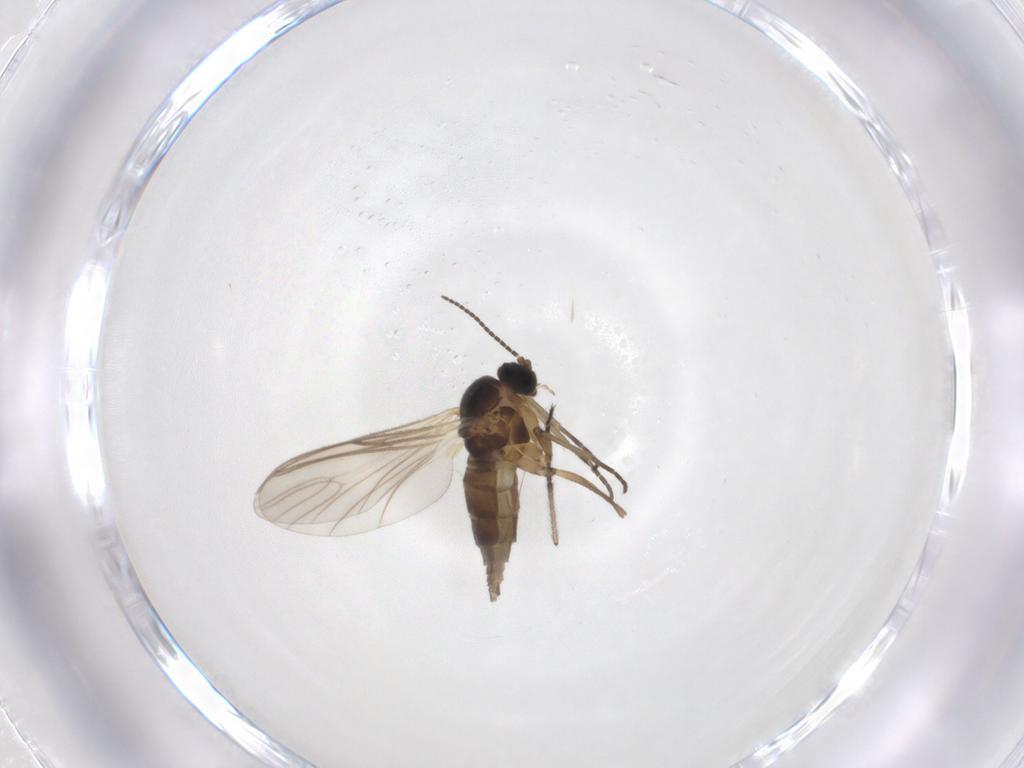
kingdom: Animalia
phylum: Arthropoda
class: Insecta
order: Diptera
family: Chironomidae
